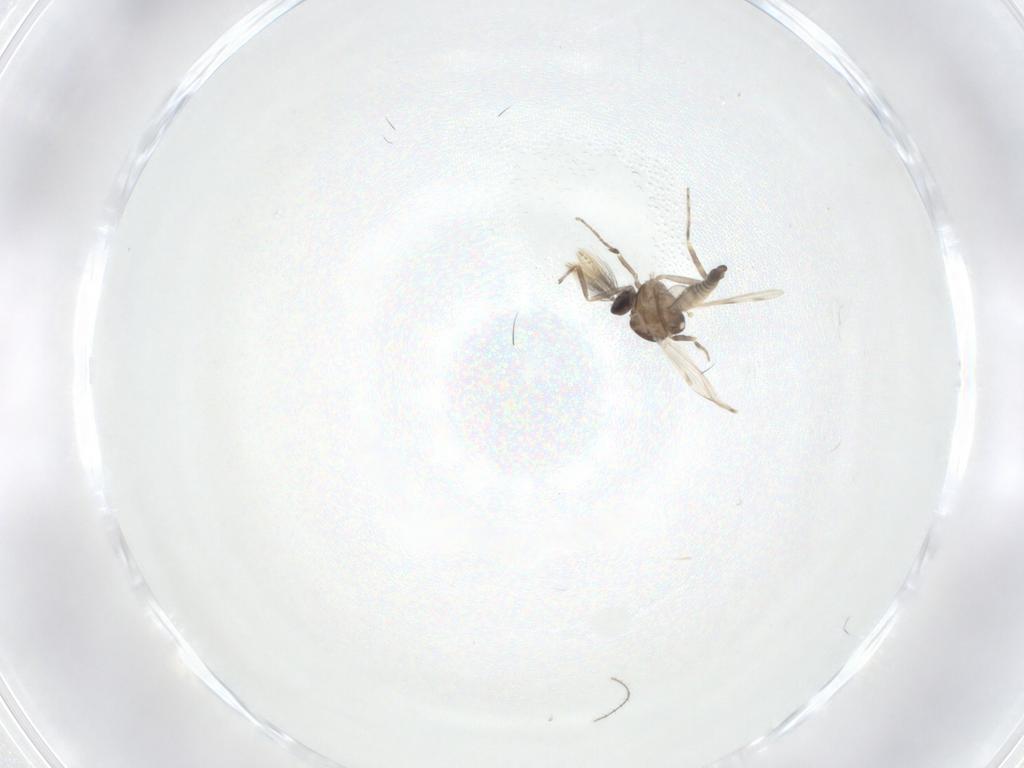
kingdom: Animalia
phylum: Arthropoda
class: Insecta
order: Diptera
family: Ceratopogonidae
